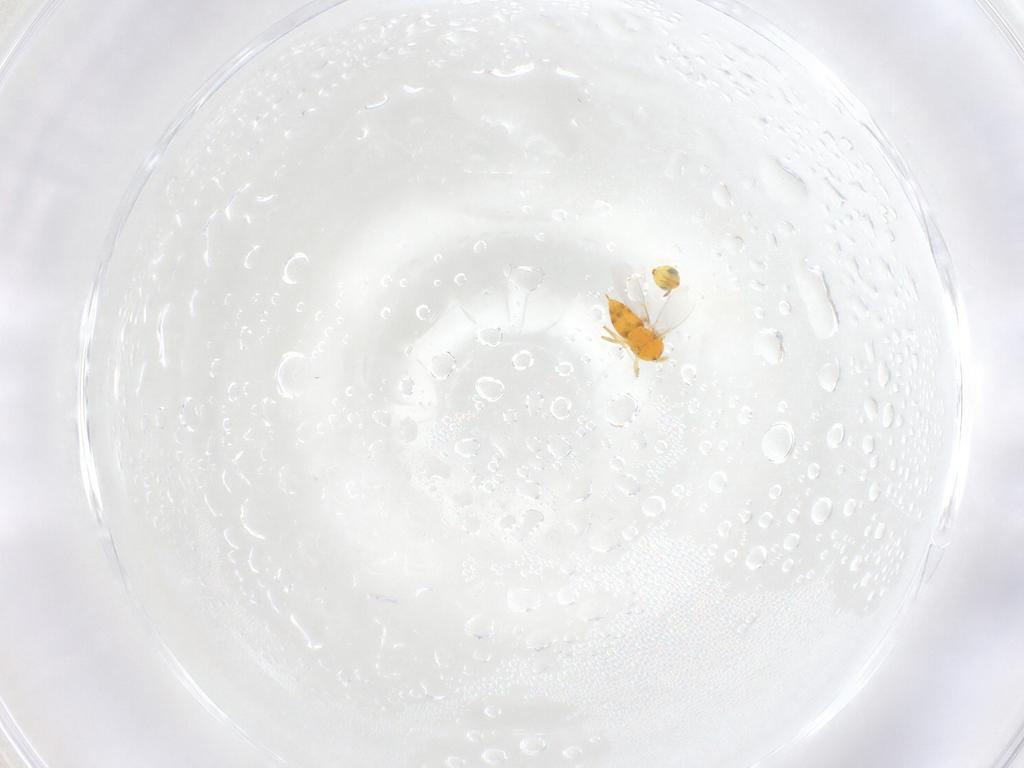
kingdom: Animalia
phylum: Arthropoda
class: Insecta
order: Hymenoptera
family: Aphelinidae
